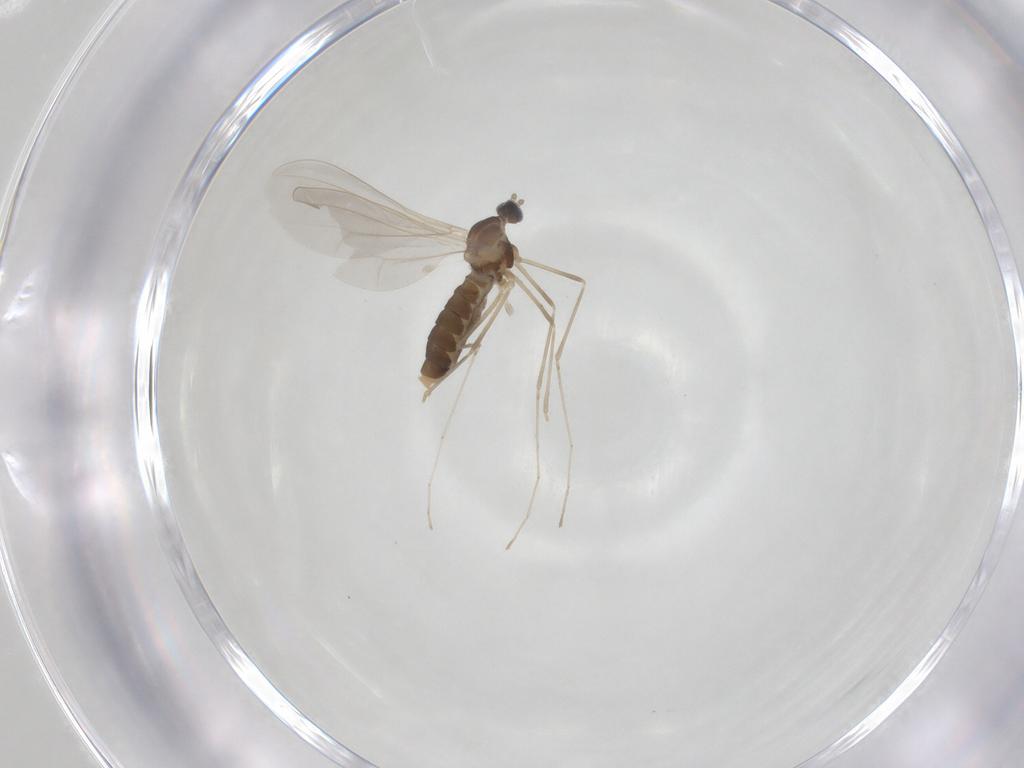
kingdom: Animalia
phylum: Arthropoda
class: Insecta
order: Diptera
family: Cecidomyiidae
